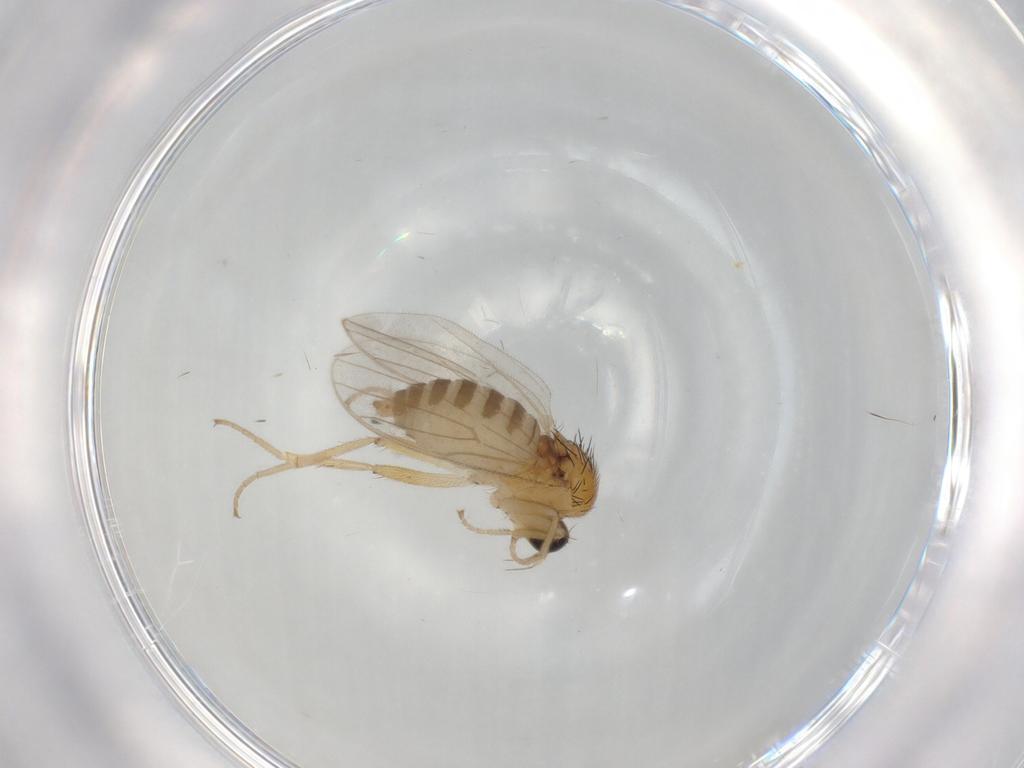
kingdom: Animalia
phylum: Arthropoda
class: Insecta
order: Diptera
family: Hybotidae
